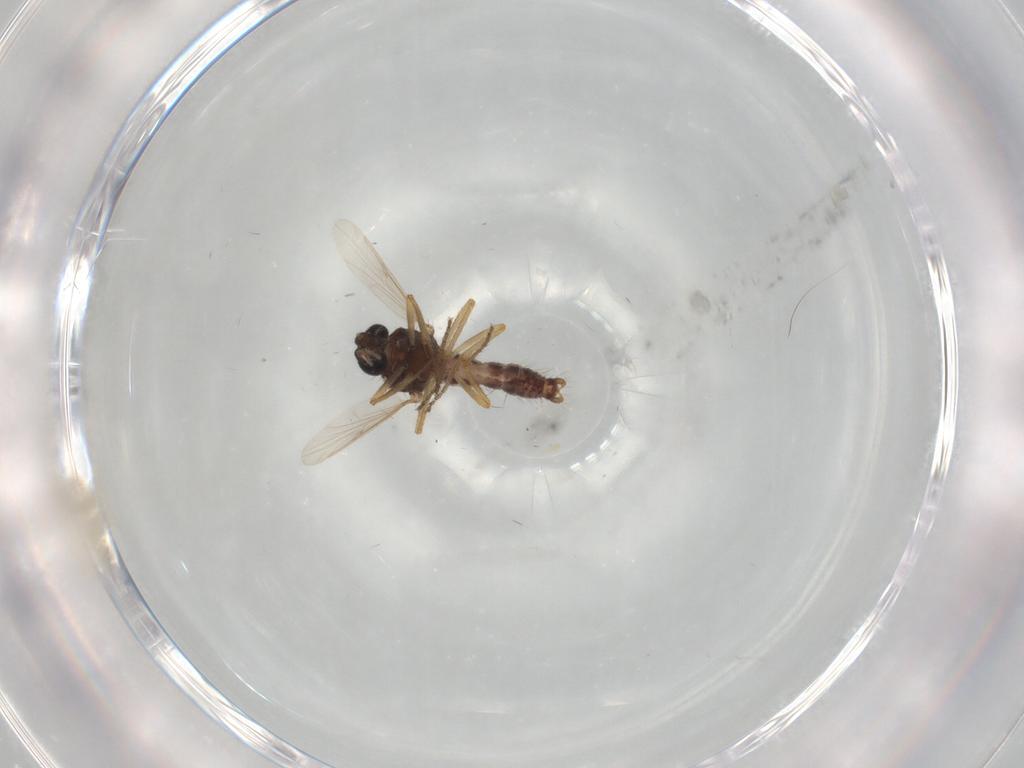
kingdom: Animalia
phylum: Arthropoda
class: Insecta
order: Diptera
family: Ceratopogonidae
